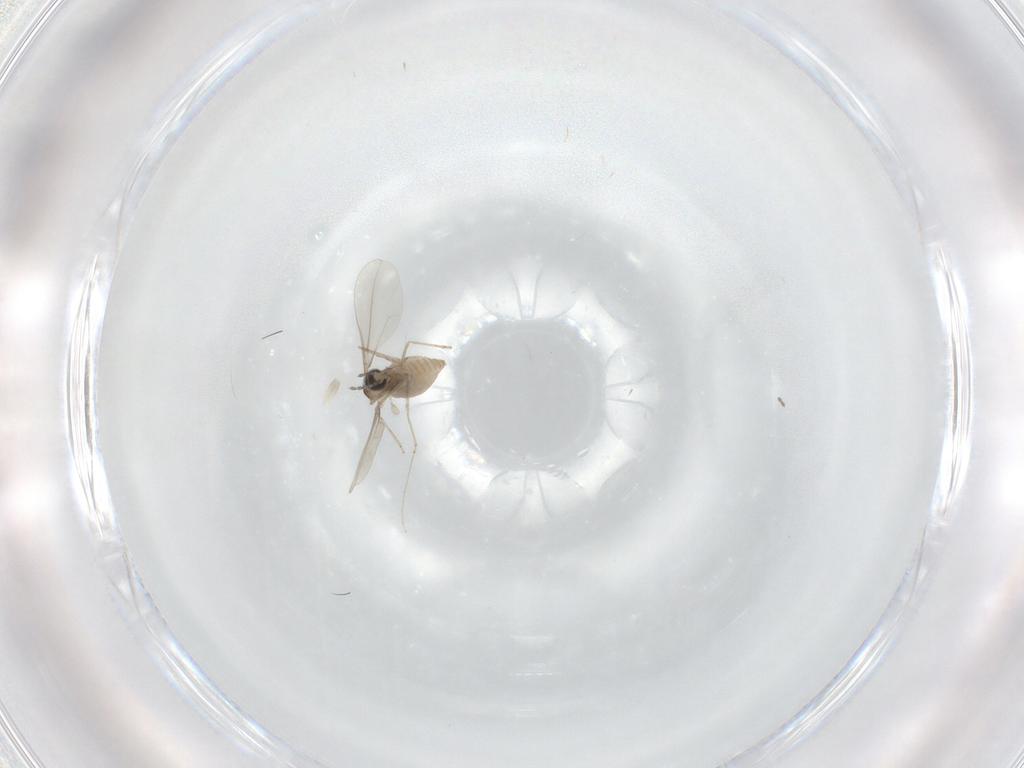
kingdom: Animalia
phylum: Arthropoda
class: Insecta
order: Diptera
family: Phoridae
